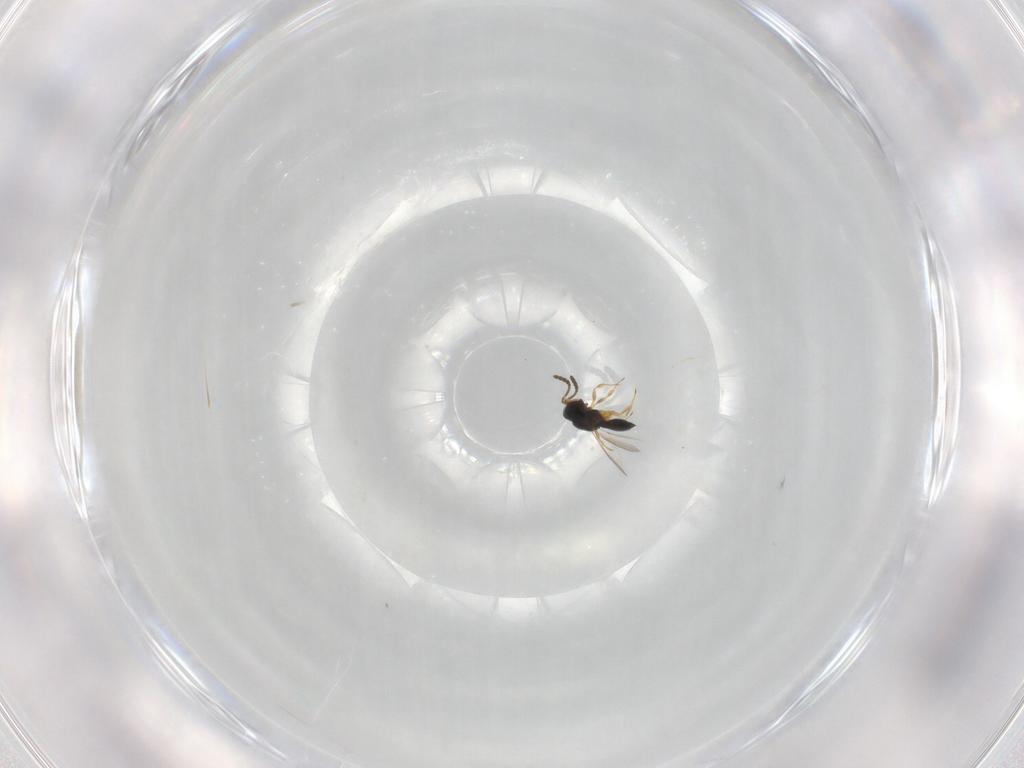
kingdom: Animalia
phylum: Arthropoda
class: Insecta
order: Hymenoptera
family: Scelionidae
